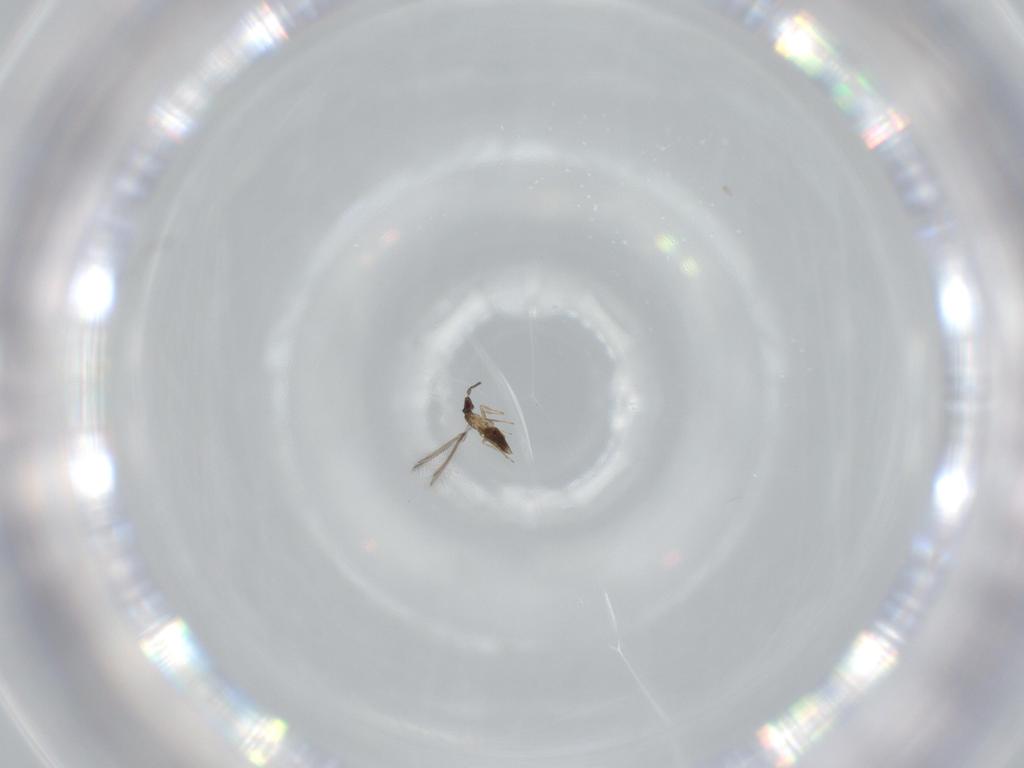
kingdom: Animalia
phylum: Arthropoda
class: Insecta
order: Hymenoptera
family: Mymaridae
